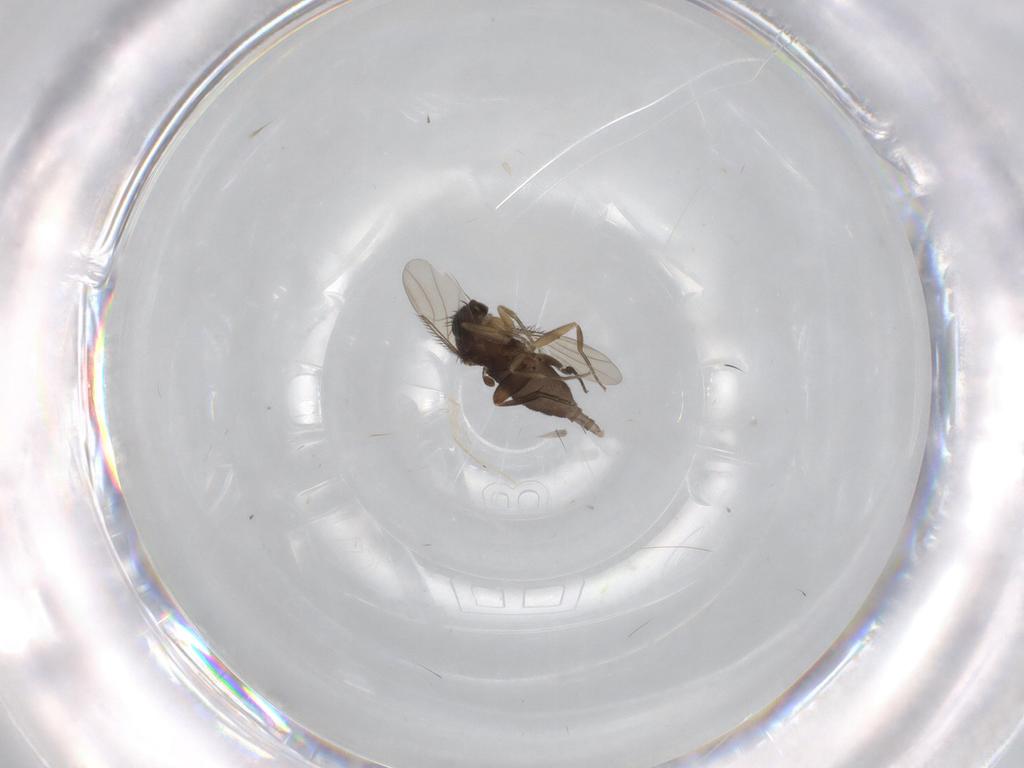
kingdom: Animalia
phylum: Arthropoda
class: Insecta
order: Diptera
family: Phoridae
